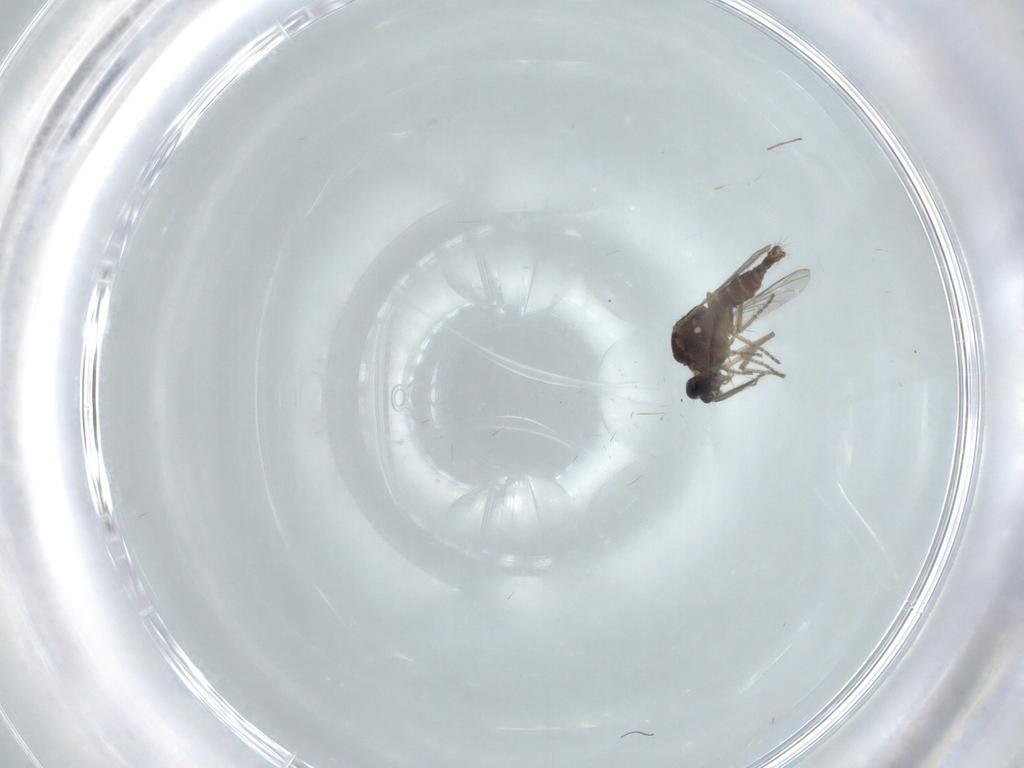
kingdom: Animalia
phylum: Arthropoda
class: Insecta
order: Diptera
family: Ceratopogonidae
